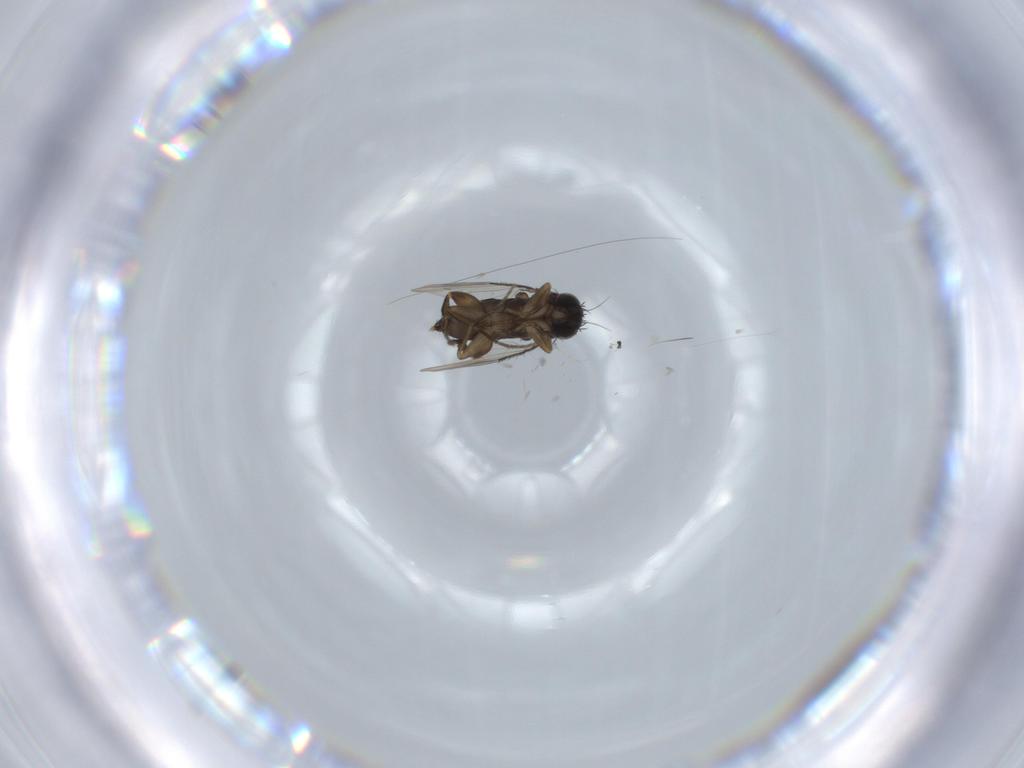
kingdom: Animalia
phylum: Arthropoda
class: Insecta
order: Diptera
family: Phoridae
